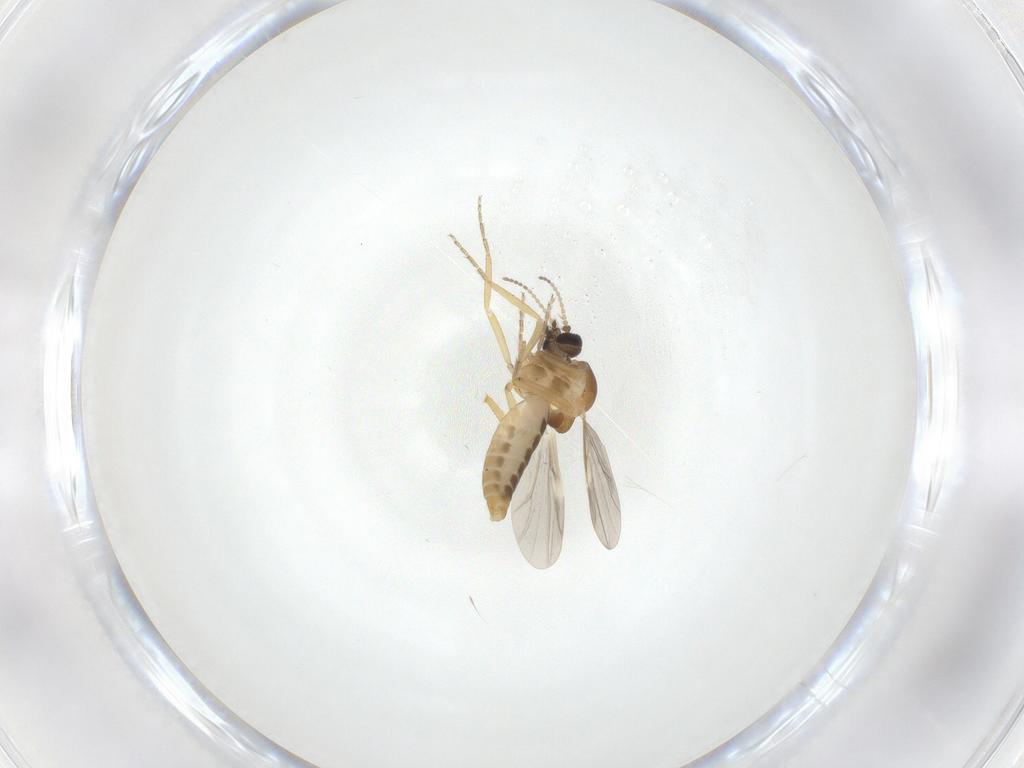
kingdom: Animalia
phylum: Arthropoda
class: Insecta
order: Diptera
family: Ceratopogonidae
